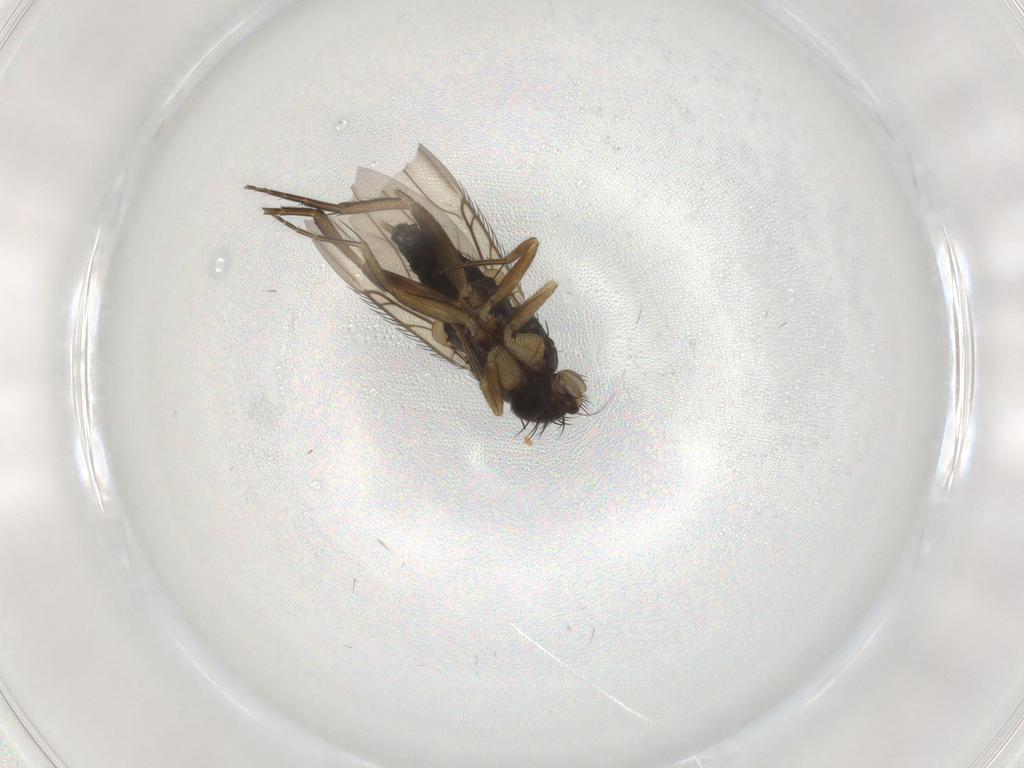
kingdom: Animalia
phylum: Arthropoda
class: Insecta
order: Diptera
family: Phoridae
